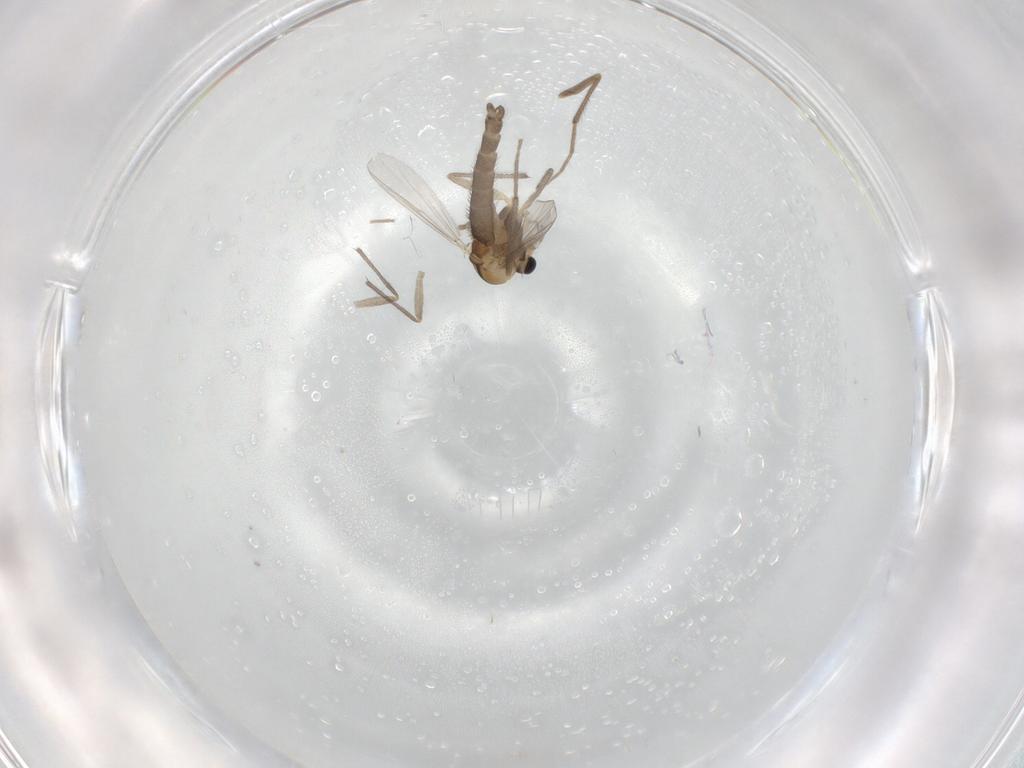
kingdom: Animalia
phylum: Arthropoda
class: Insecta
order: Diptera
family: Chironomidae
